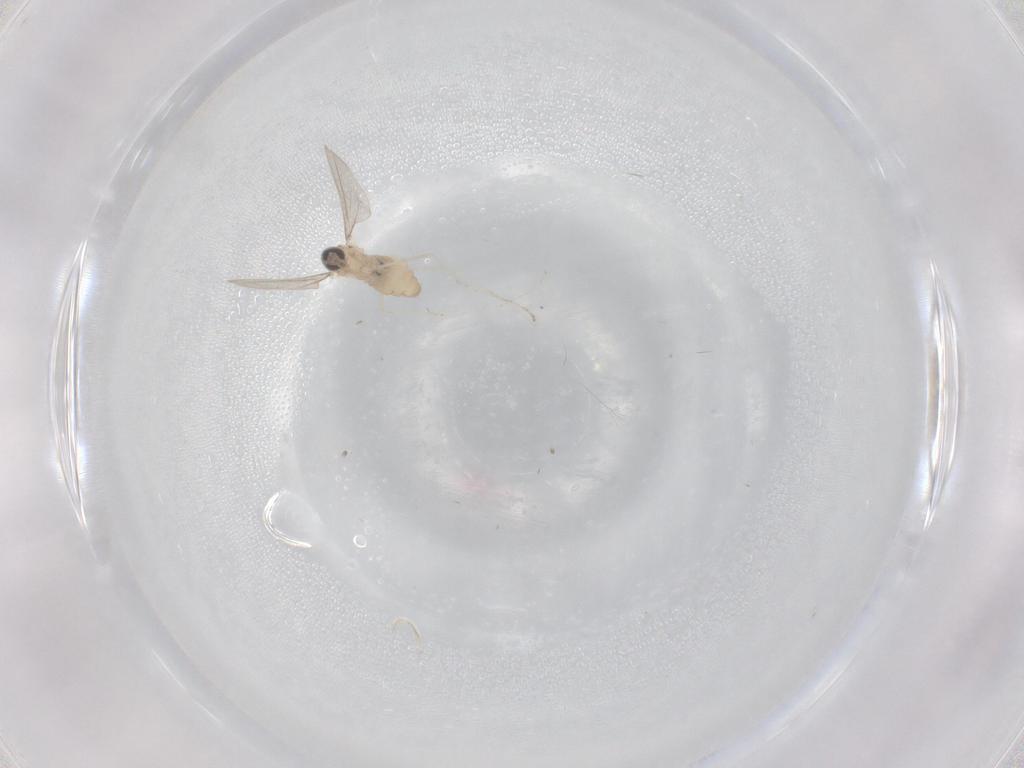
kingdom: Animalia
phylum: Arthropoda
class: Insecta
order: Diptera
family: Cecidomyiidae
